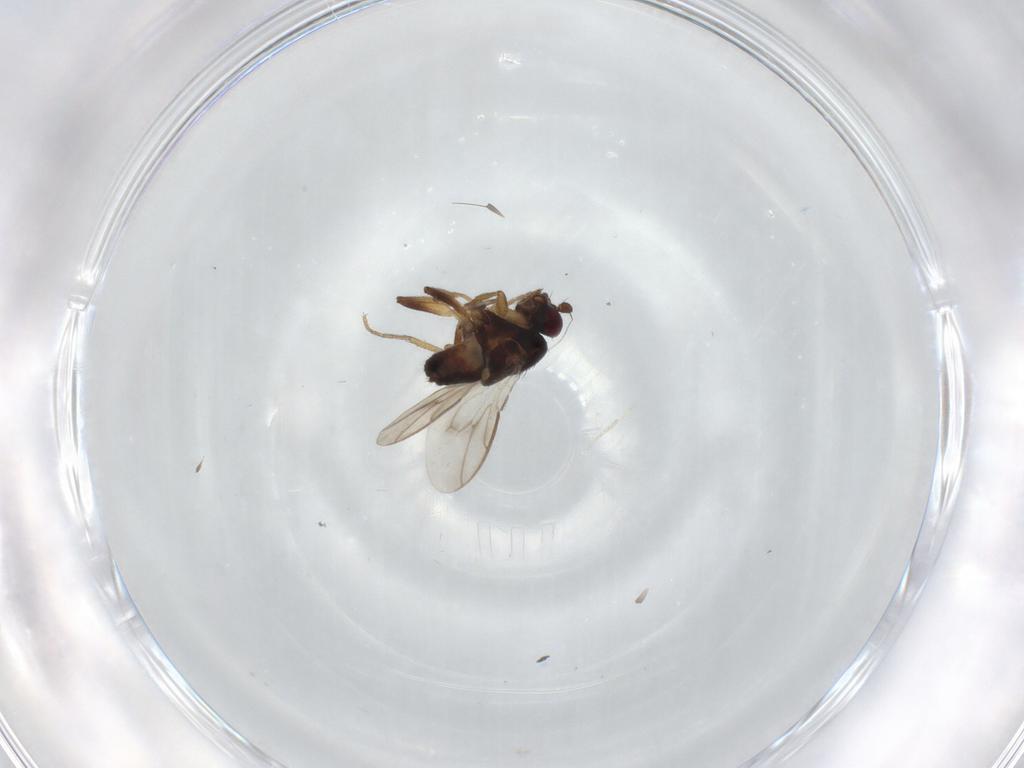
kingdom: Animalia
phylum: Arthropoda
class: Insecta
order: Diptera
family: Sphaeroceridae
